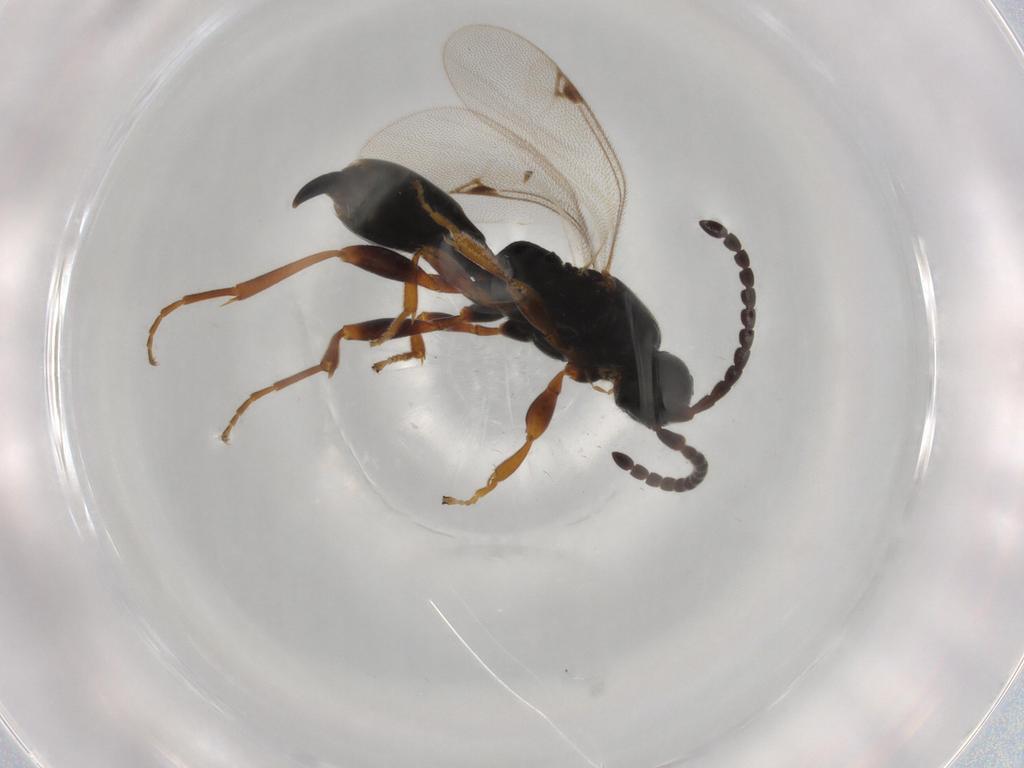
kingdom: Animalia
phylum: Arthropoda
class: Insecta
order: Diptera
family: Cecidomyiidae
